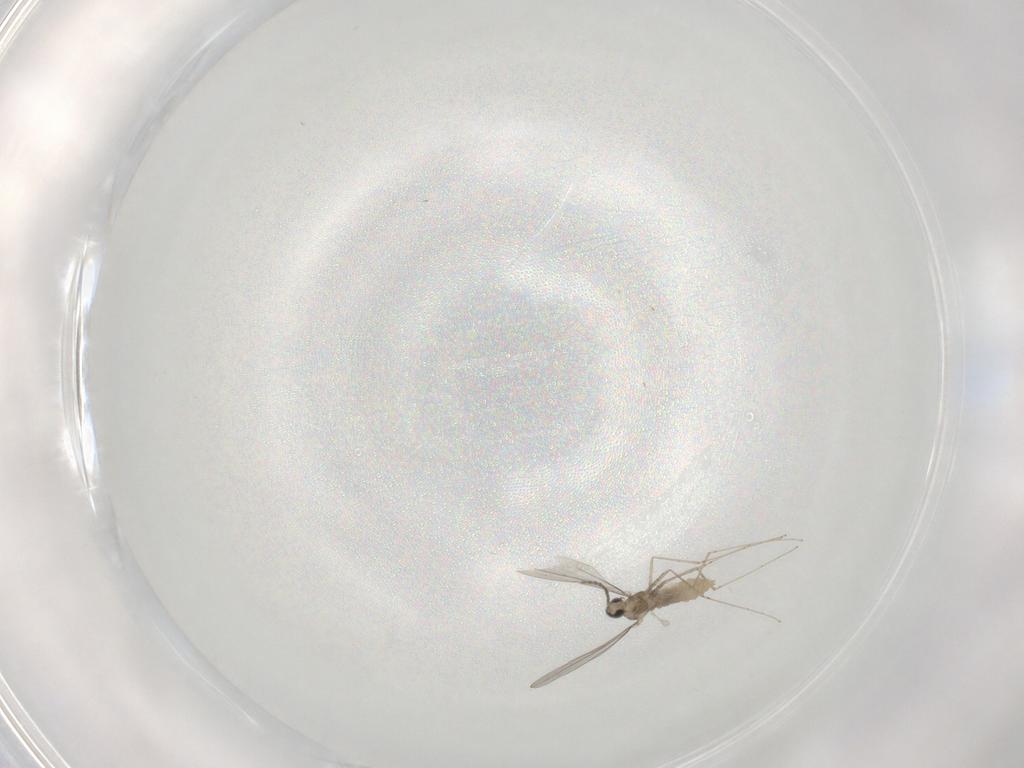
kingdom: Animalia
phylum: Arthropoda
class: Insecta
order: Diptera
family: Cecidomyiidae
